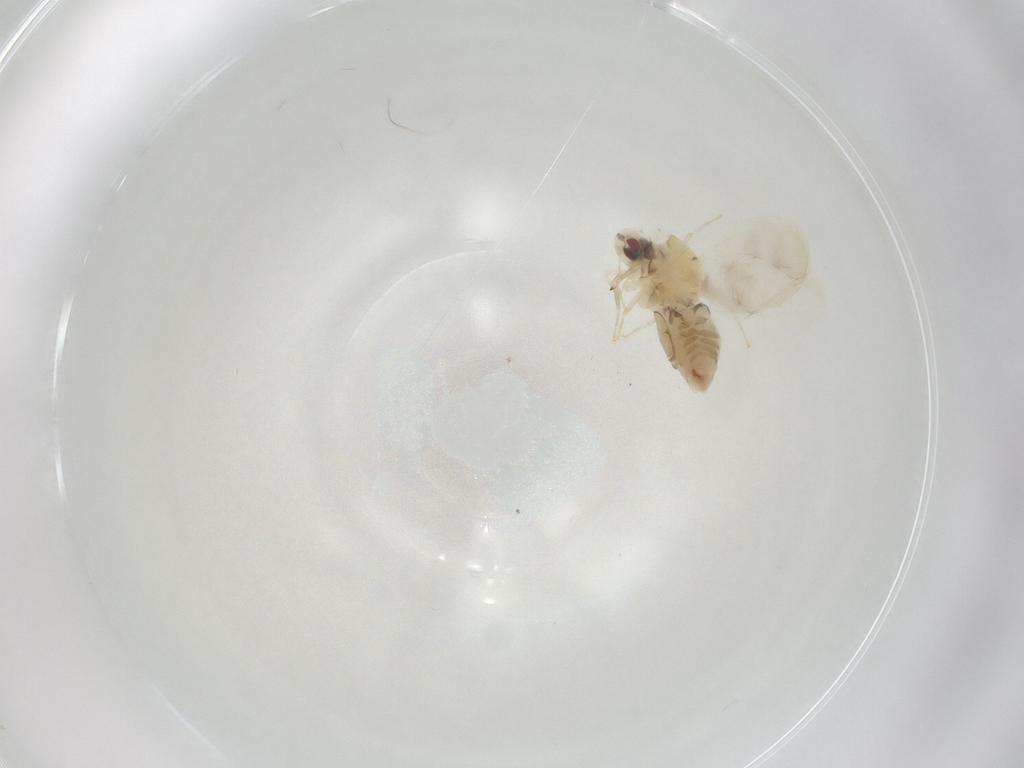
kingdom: Animalia
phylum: Arthropoda
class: Insecta
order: Hemiptera
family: Aleyrodidae
